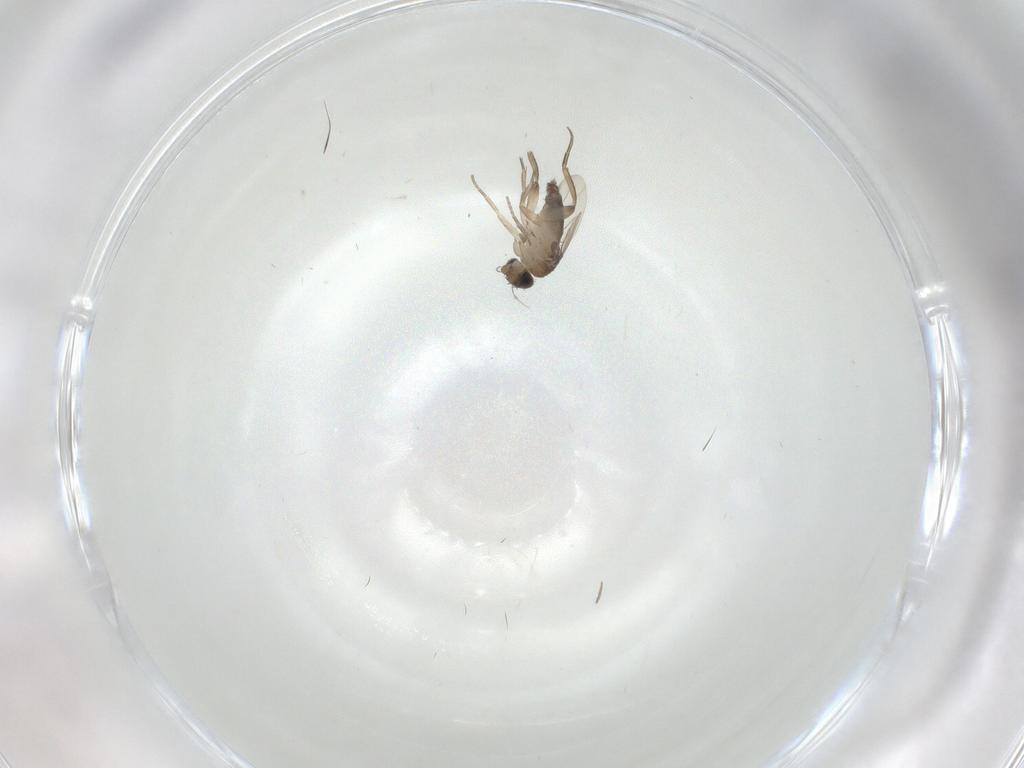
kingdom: Animalia
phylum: Arthropoda
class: Insecta
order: Diptera
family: Phoridae
